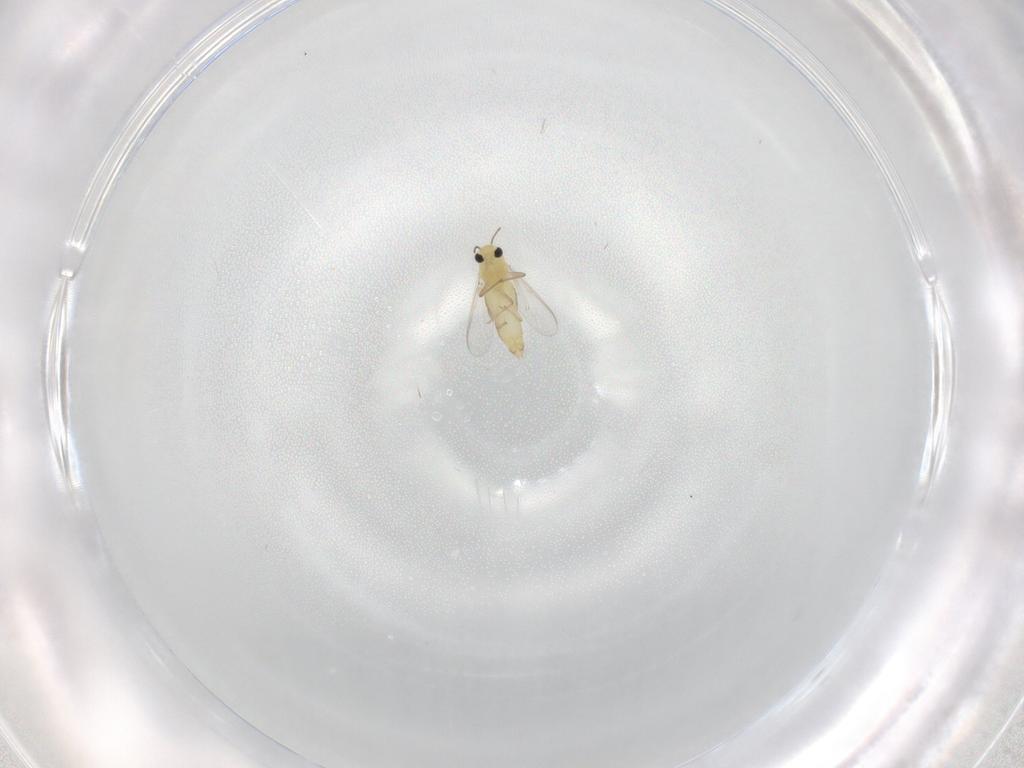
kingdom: Animalia
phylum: Arthropoda
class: Insecta
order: Diptera
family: Chironomidae
